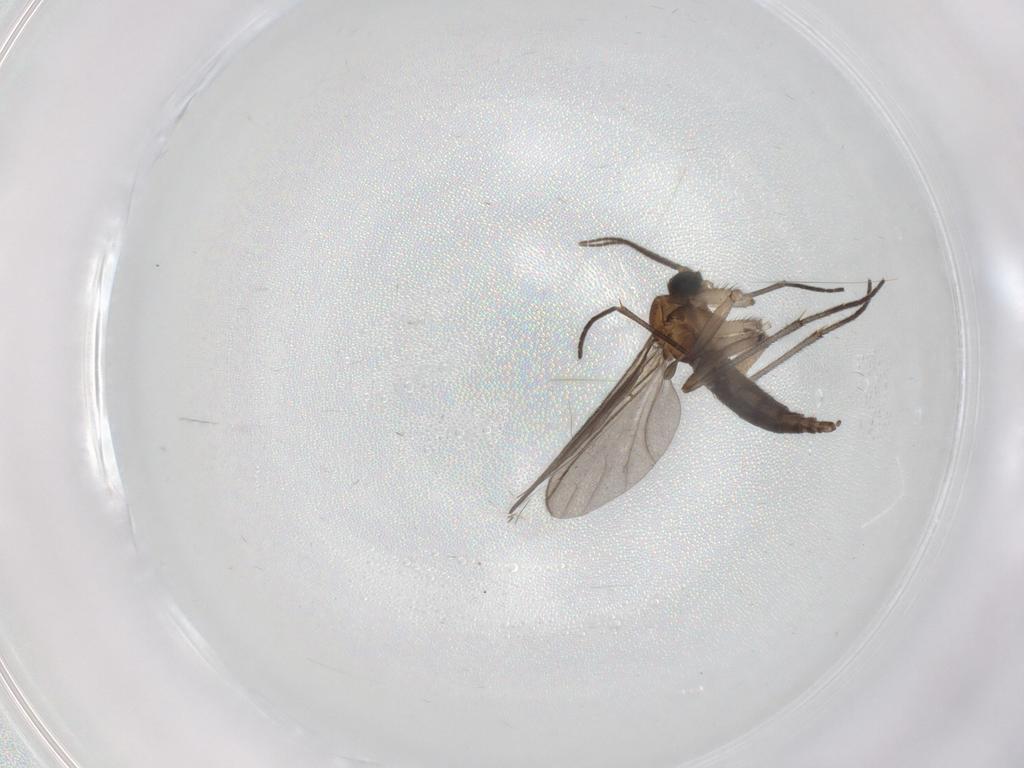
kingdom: Animalia
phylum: Arthropoda
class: Insecta
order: Diptera
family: Sciaridae
